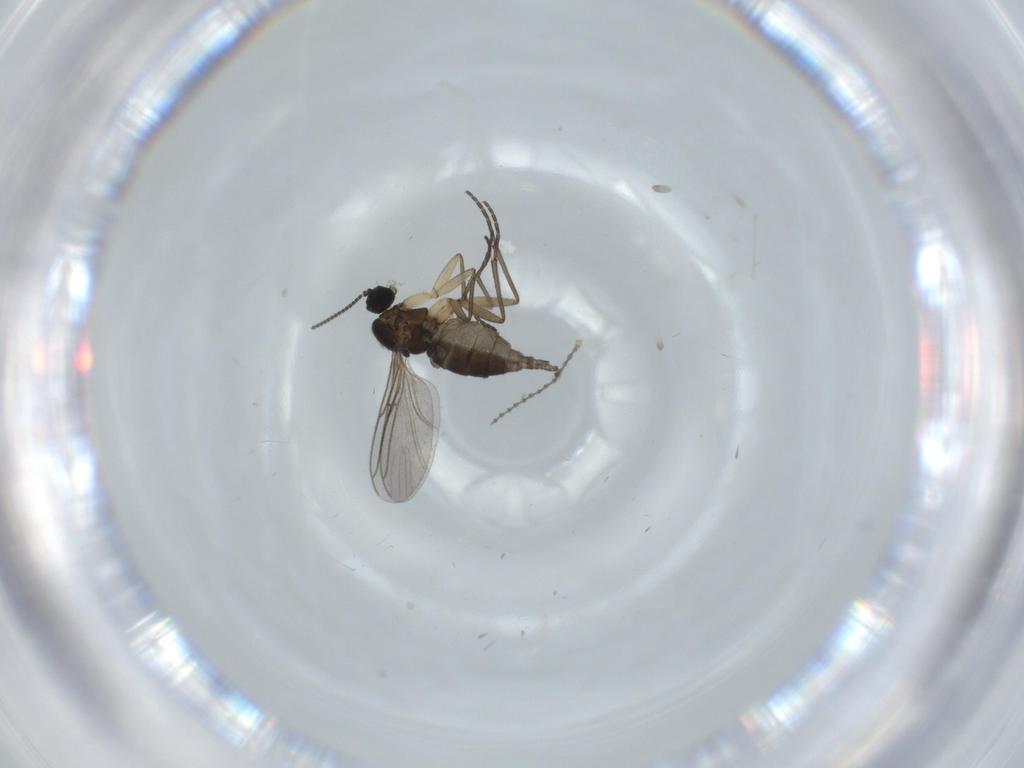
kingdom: Animalia
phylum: Arthropoda
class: Insecta
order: Diptera
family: Sciaridae
